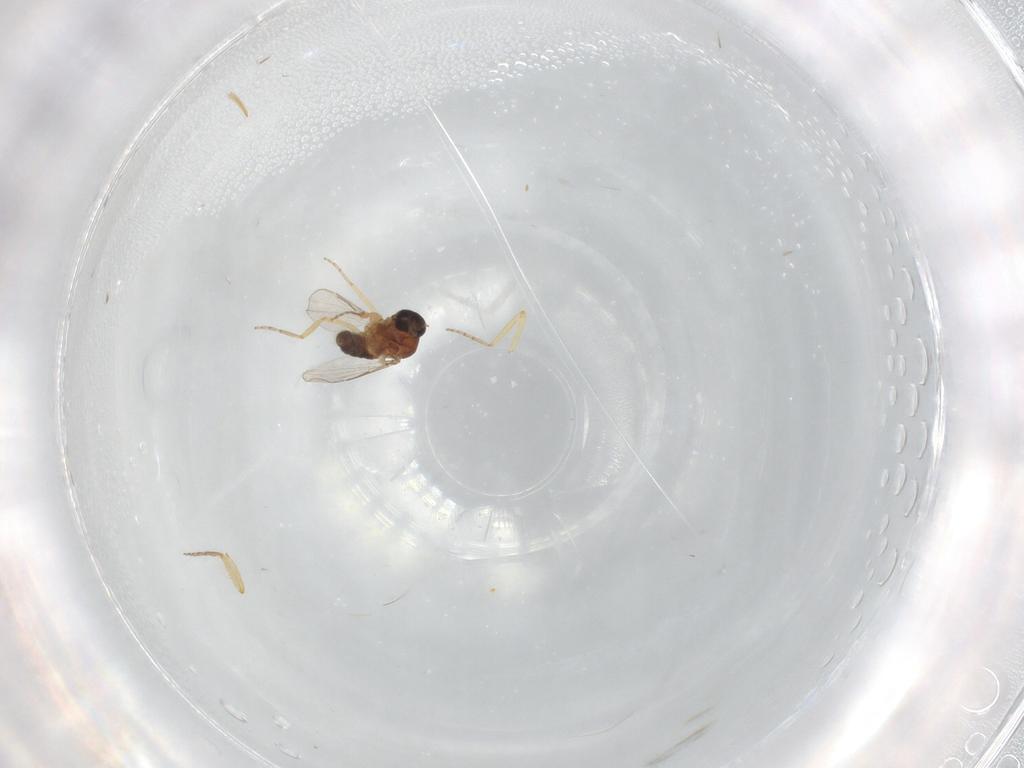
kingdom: Animalia
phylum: Arthropoda
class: Insecta
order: Diptera
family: Ceratopogonidae
